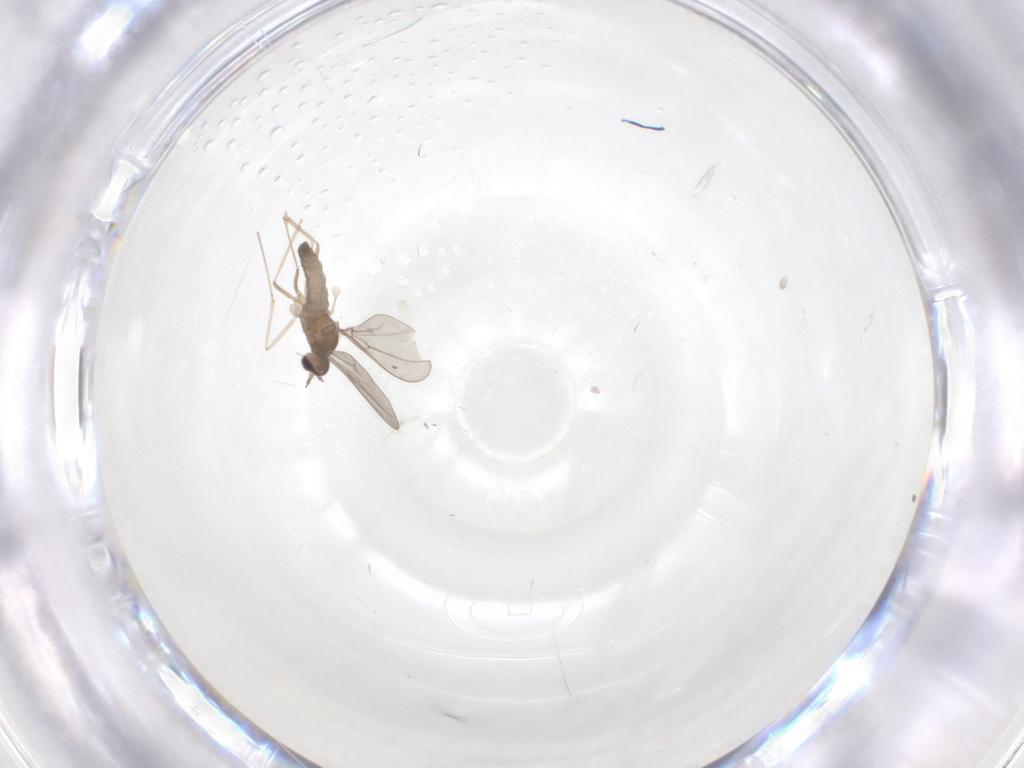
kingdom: Animalia
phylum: Arthropoda
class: Insecta
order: Diptera
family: Phoridae
